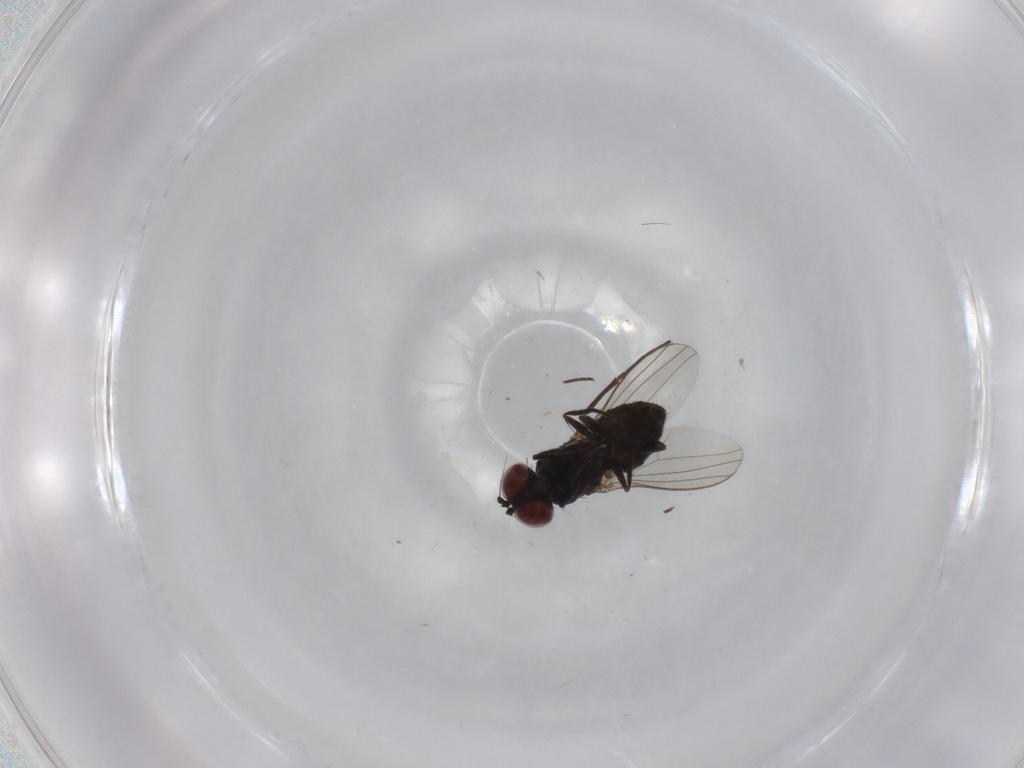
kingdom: Animalia
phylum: Arthropoda
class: Insecta
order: Diptera
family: Dolichopodidae
